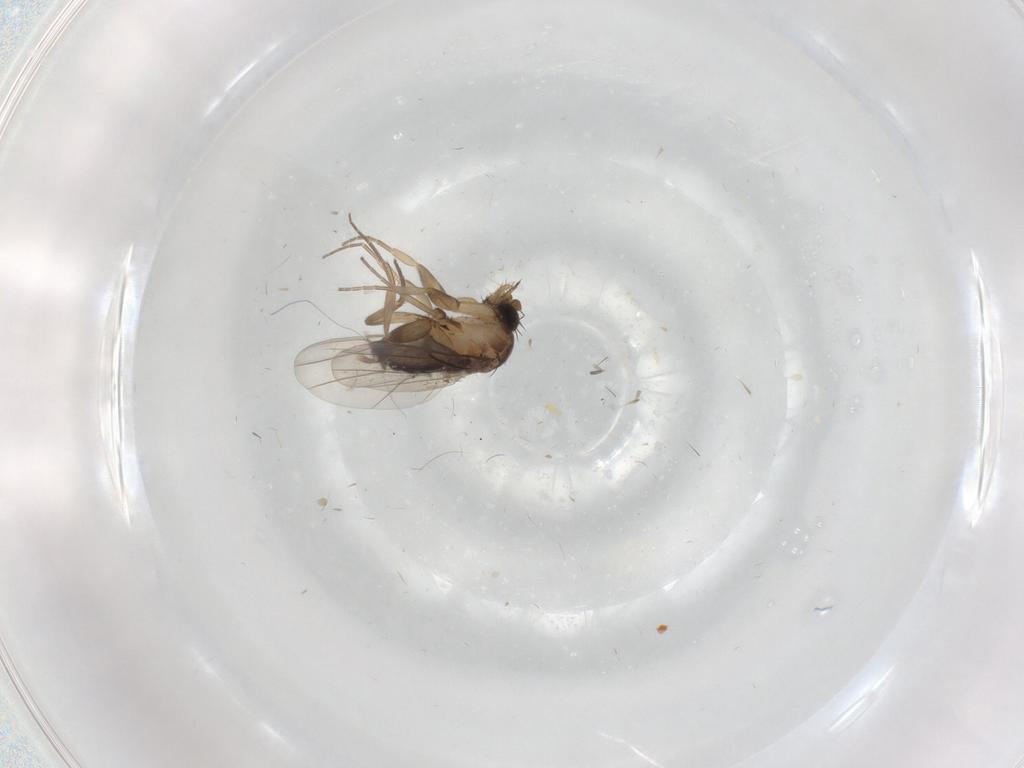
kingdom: Animalia
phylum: Arthropoda
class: Insecta
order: Diptera
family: Phoridae
